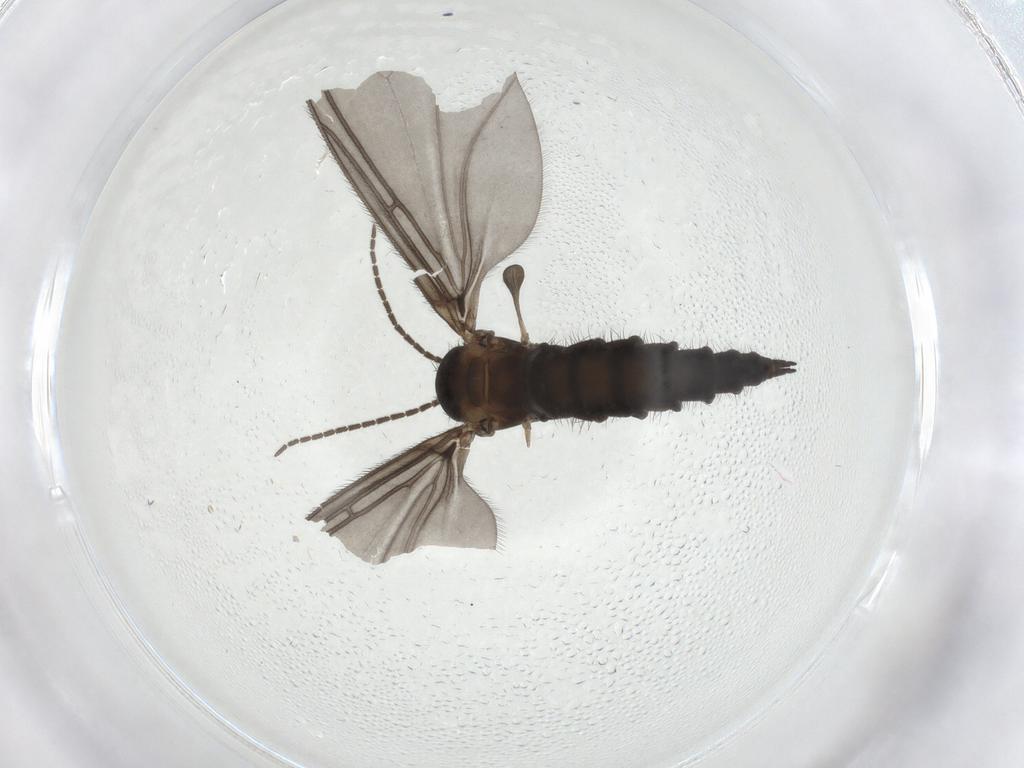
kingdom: Animalia
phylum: Arthropoda
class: Insecta
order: Diptera
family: Sciaridae
